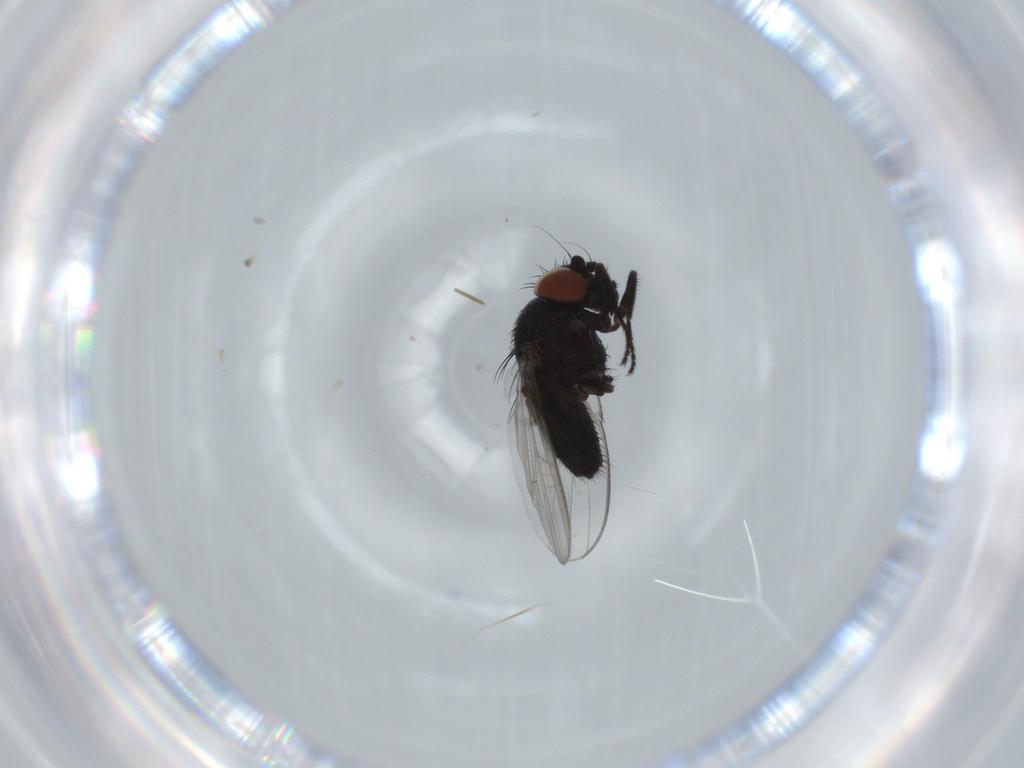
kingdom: Animalia
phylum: Arthropoda
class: Insecta
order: Diptera
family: Milichiidae
